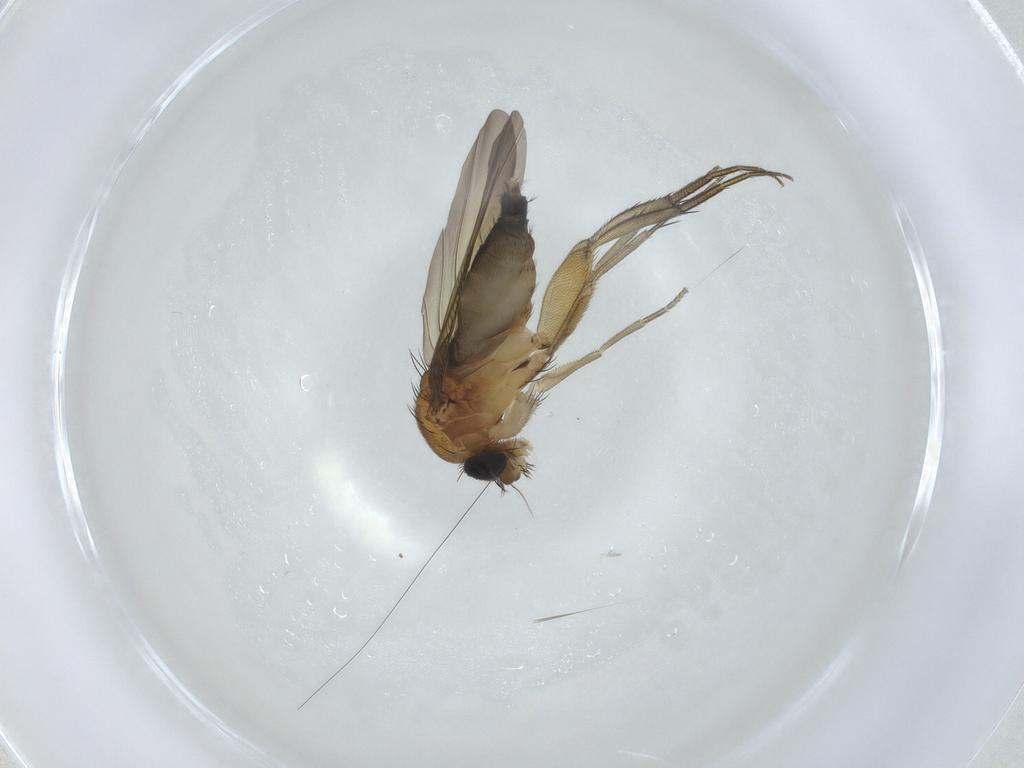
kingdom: Animalia
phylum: Arthropoda
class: Insecta
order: Diptera
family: Phoridae
